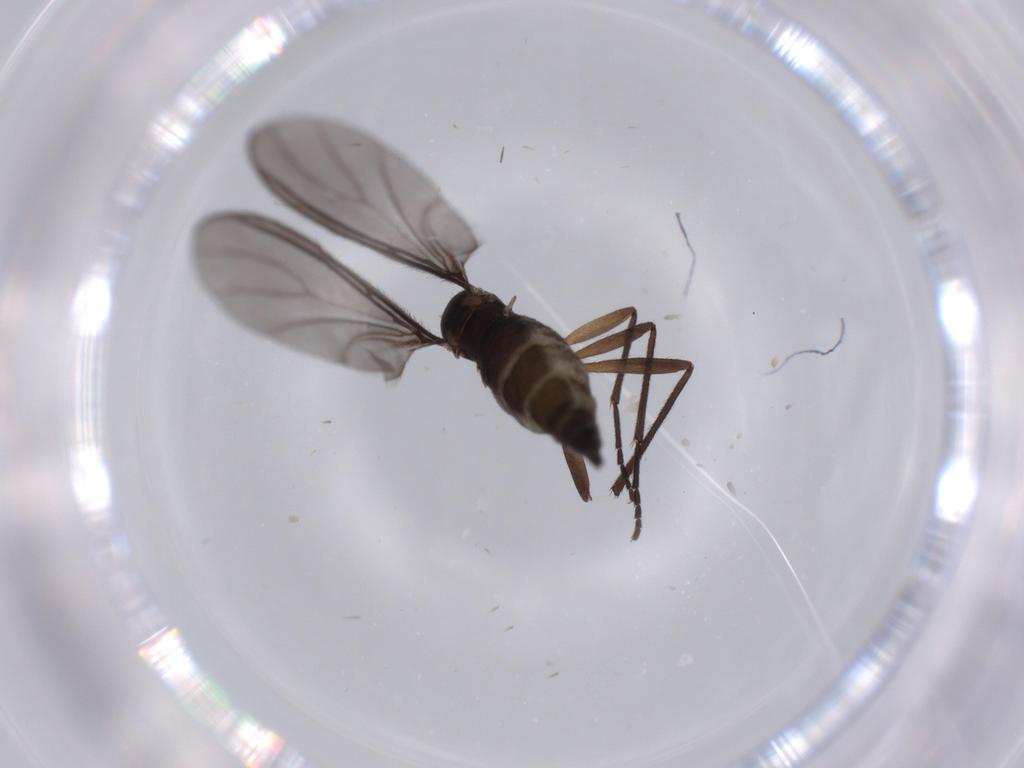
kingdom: Animalia
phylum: Arthropoda
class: Insecta
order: Diptera
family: Sciaridae
